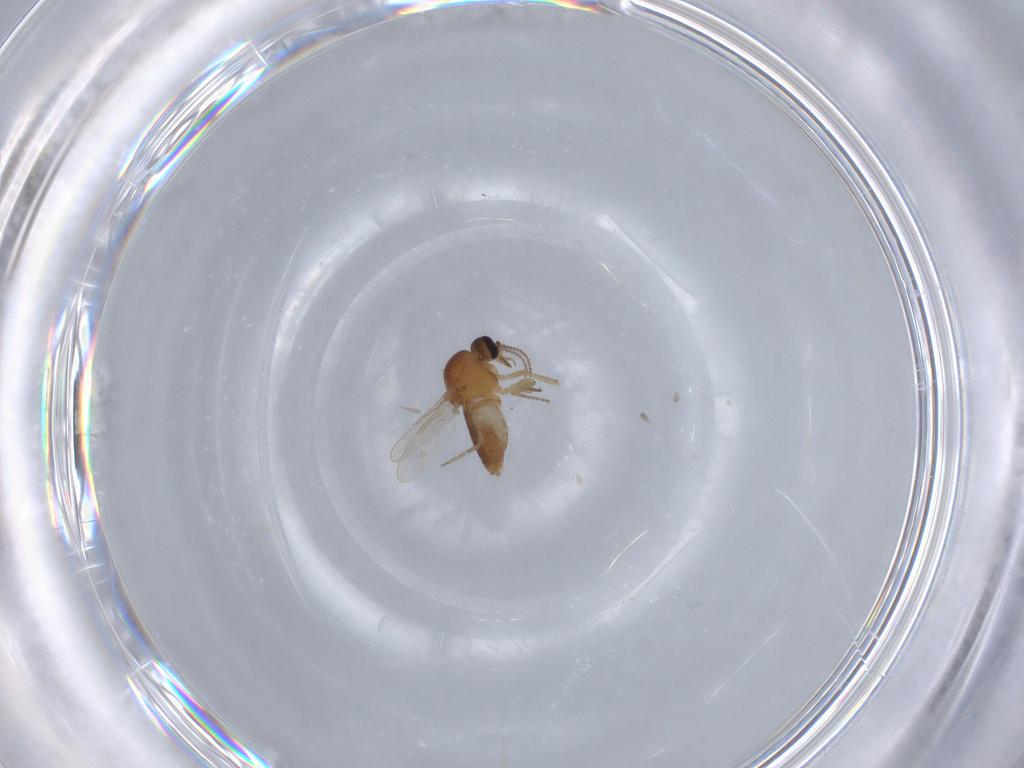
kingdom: Animalia
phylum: Arthropoda
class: Insecta
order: Diptera
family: Ceratopogonidae
